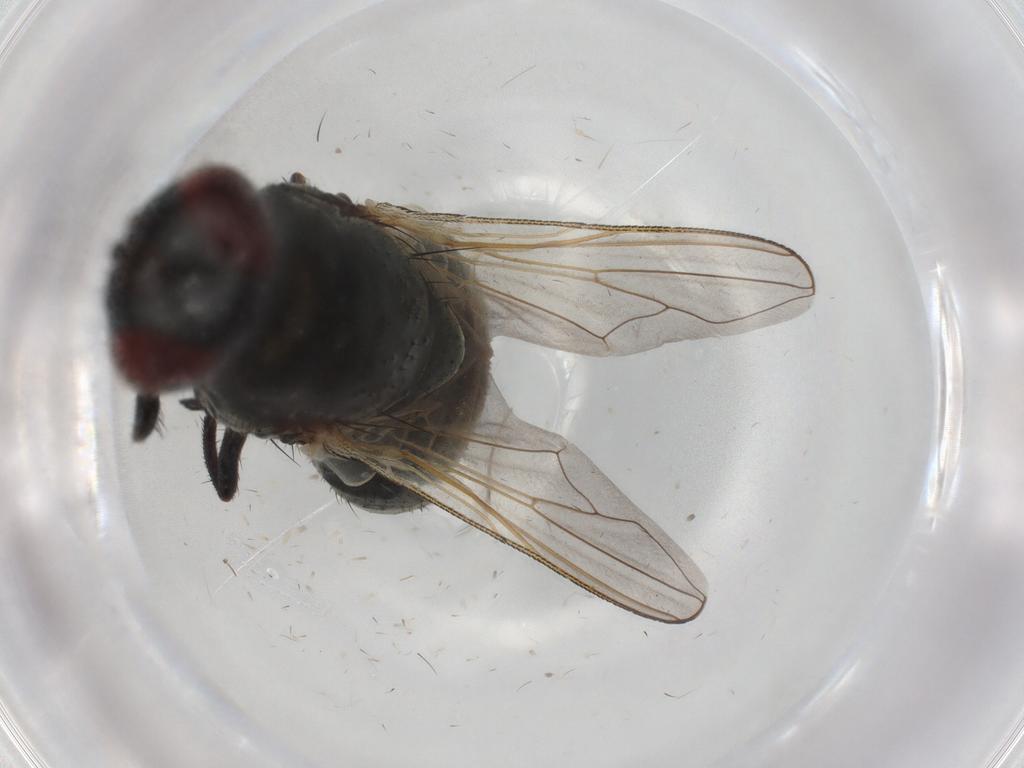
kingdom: Animalia
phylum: Arthropoda
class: Insecta
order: Diptera
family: Muscidae
